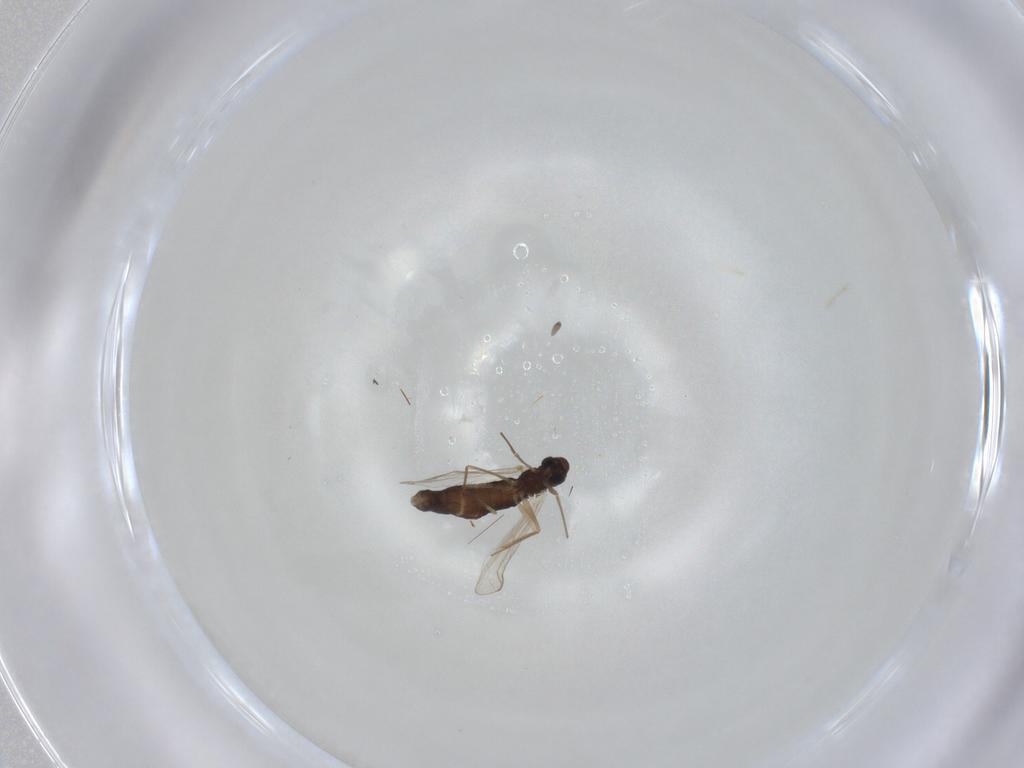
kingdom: Animalia
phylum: Arthropoda
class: Insecta
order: Diptera
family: Chironomidae
